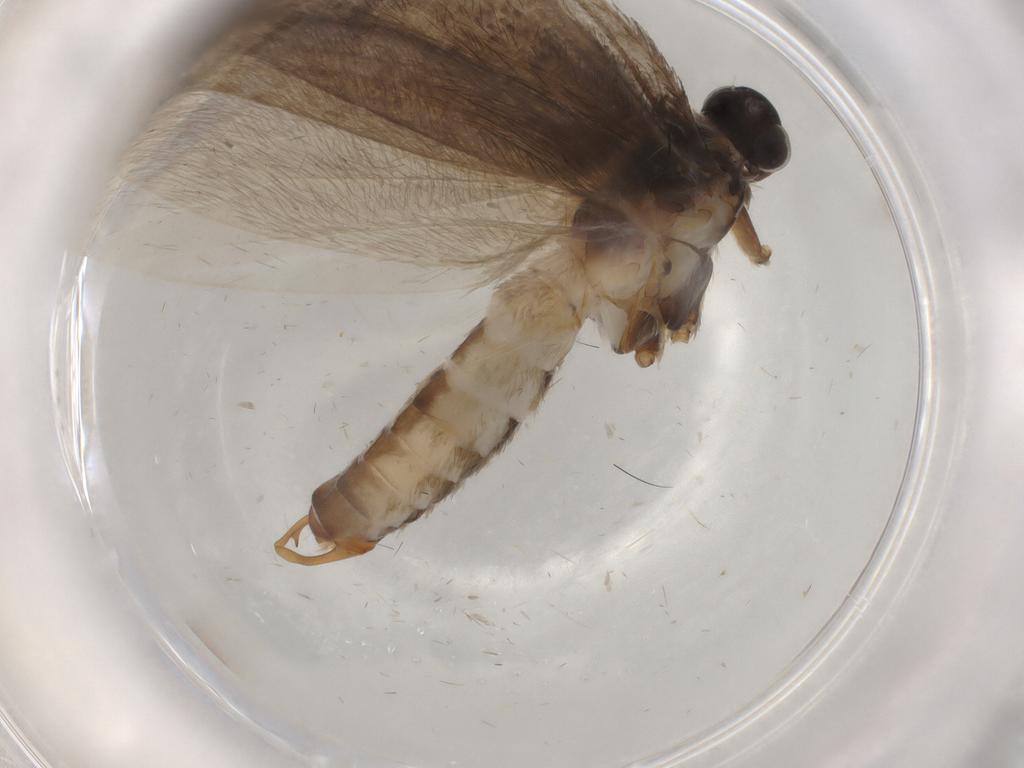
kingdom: Animalia
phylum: Arthropoda
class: Insecta
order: Lepidoptera
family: Adelidae
